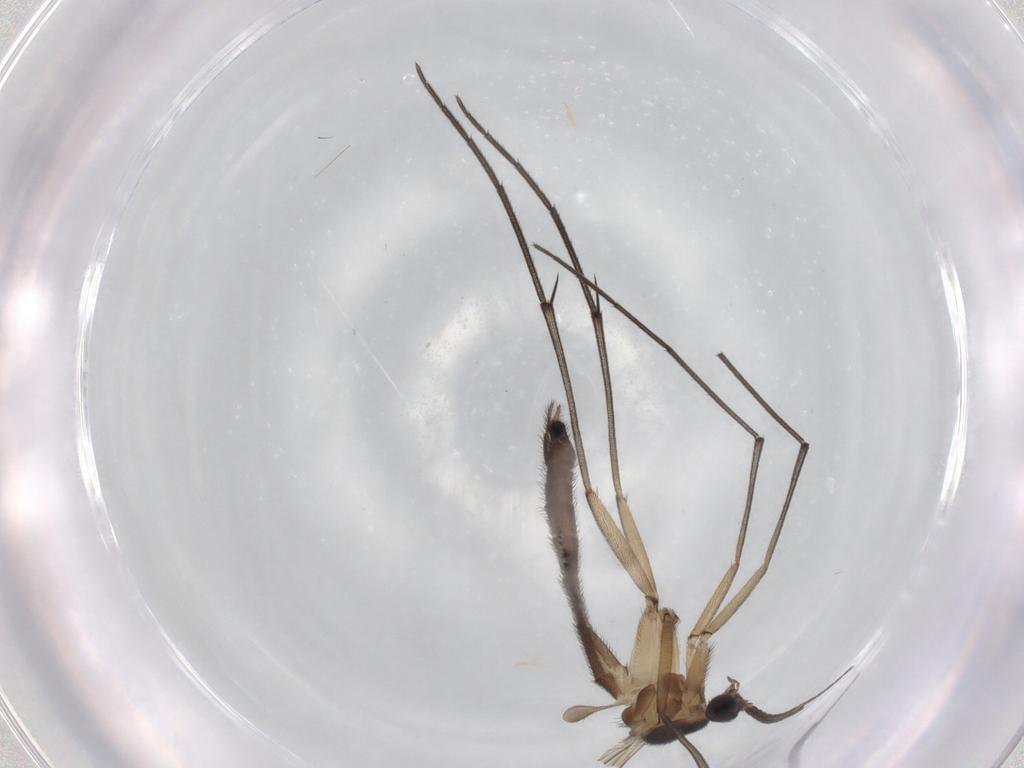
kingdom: Animalia
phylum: Arthropoda
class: Insecta
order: Diptera
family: Keroplatidae
